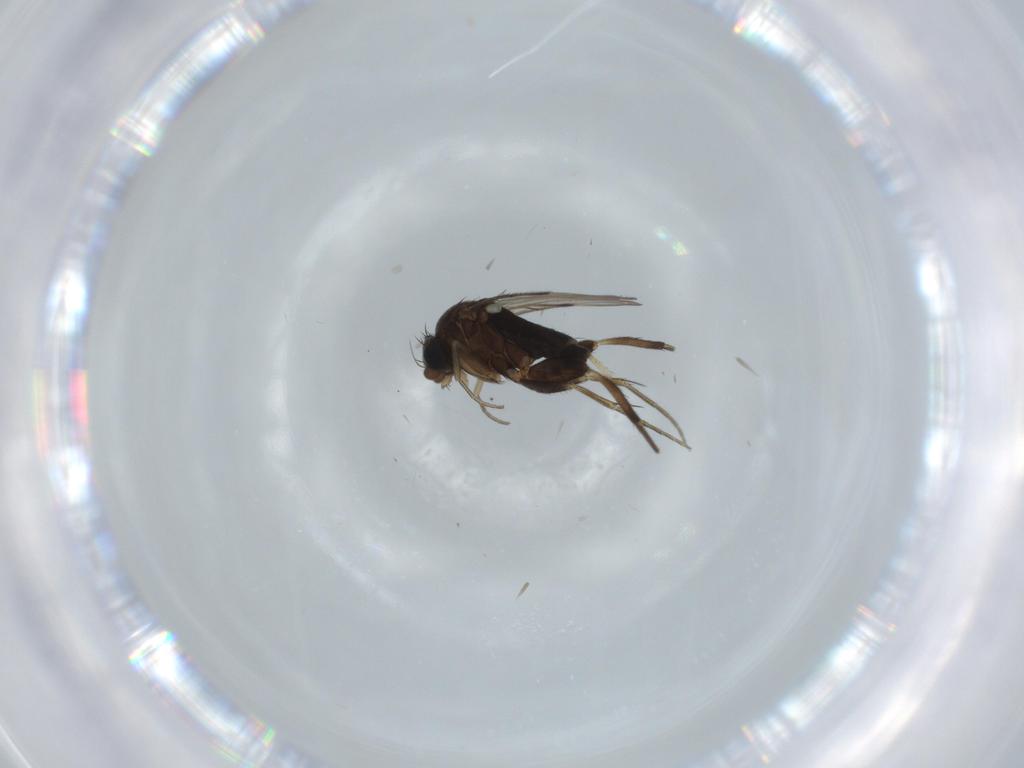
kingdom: Animalia
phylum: Arthropoda
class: Insecta
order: Diptera
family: Phoridae
